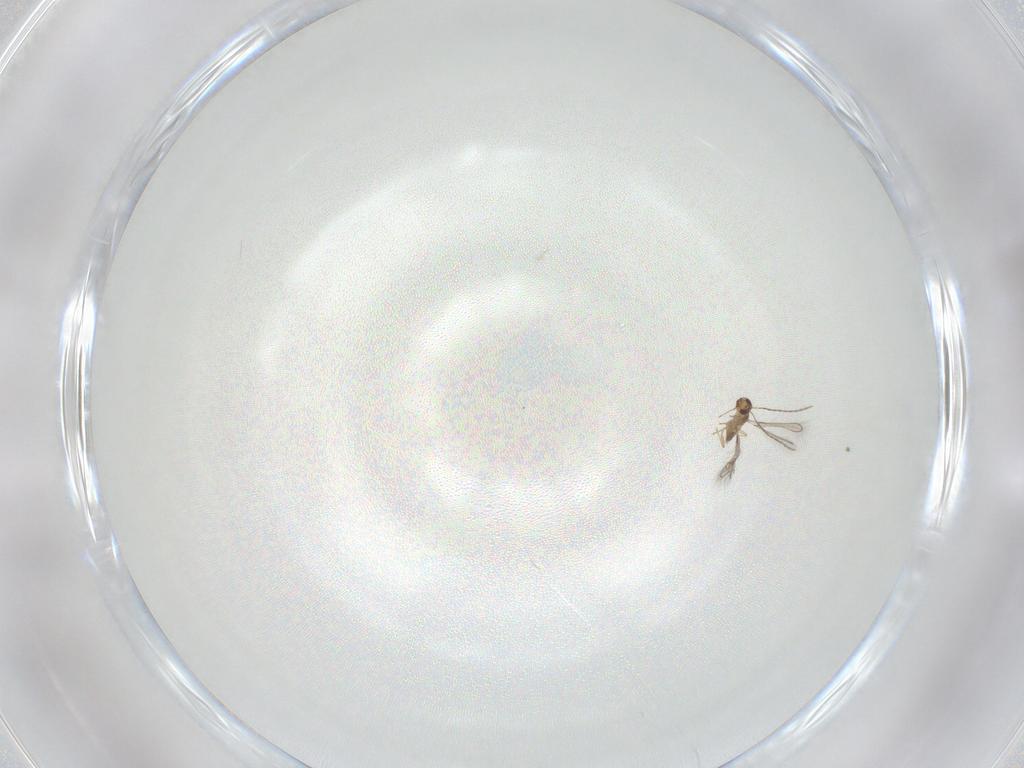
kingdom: Animalia
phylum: Arthropoda
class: Insecta
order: Hymenoptera
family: Mymaridae
